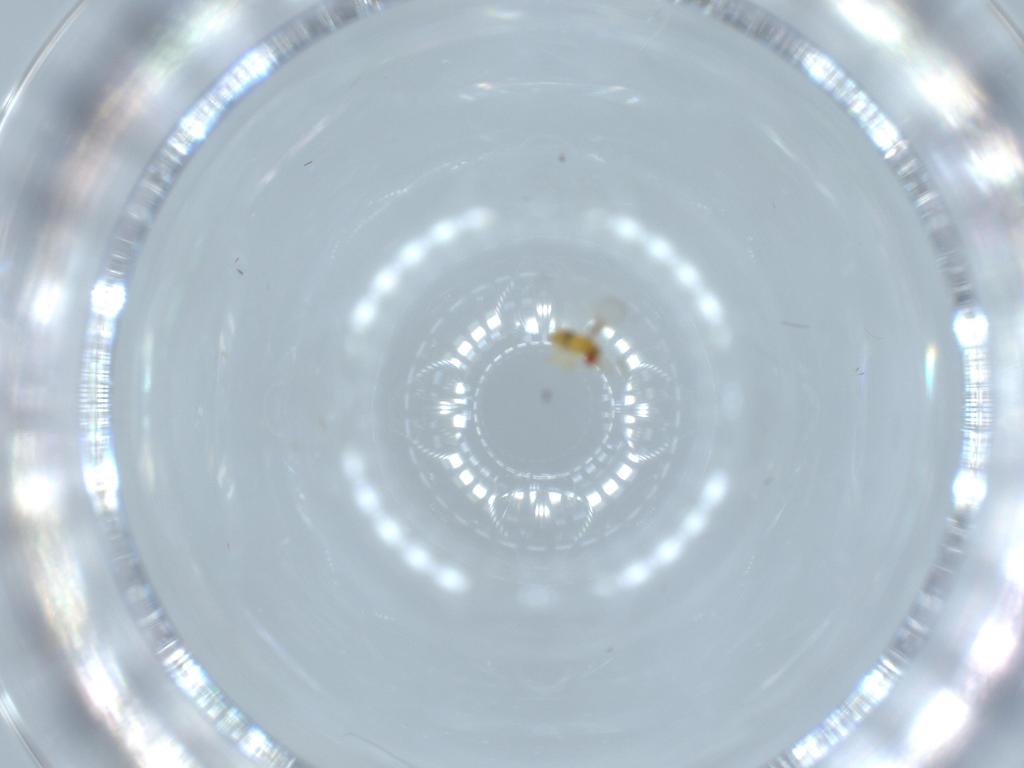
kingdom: Animalia
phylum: Arthropoda
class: Insecta
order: Hymenoptera
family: Trichogrammatidae
